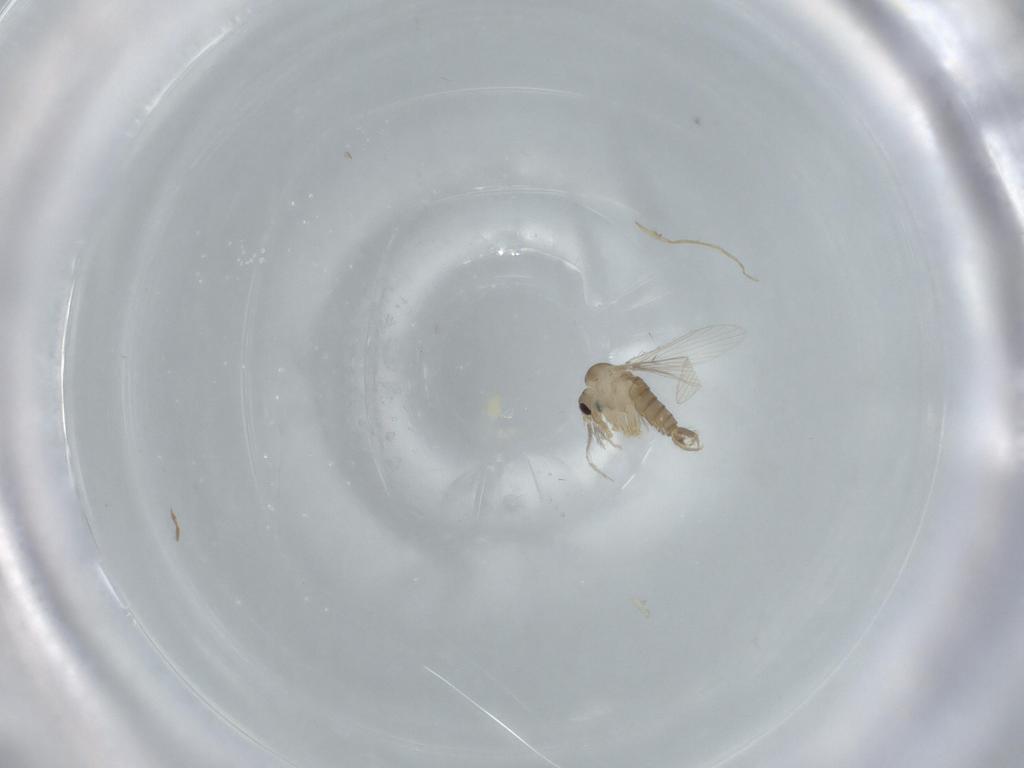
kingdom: Animalia
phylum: Arthropoda
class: Insecta
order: Diptera
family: Psychodidae
